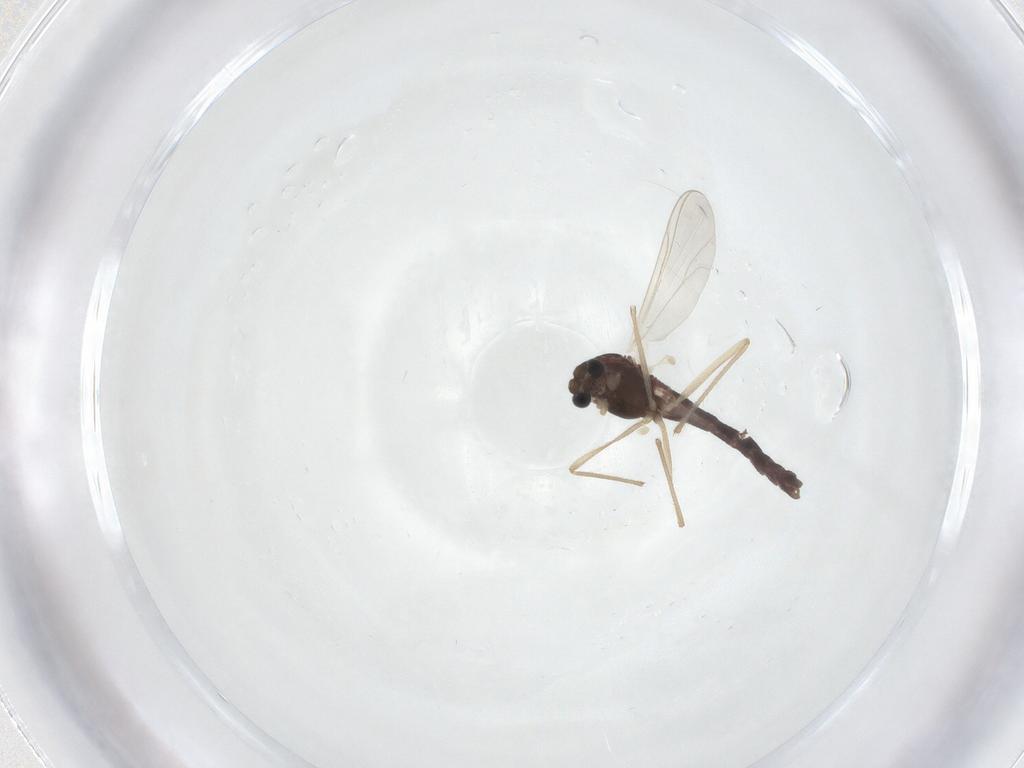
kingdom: Animalia
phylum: Arthropoda
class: Insecta
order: Diptera
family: Chironomidae
